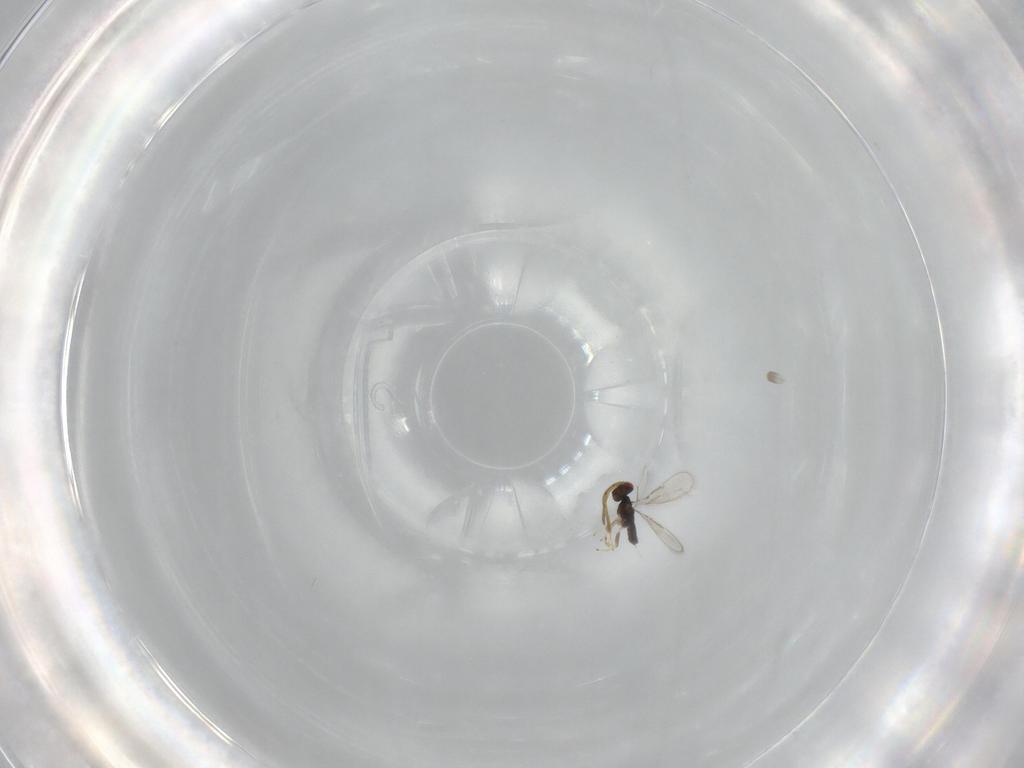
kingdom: Animalia
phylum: Arthropoda
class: Insecta
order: Hymenoptera
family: Azotidae
